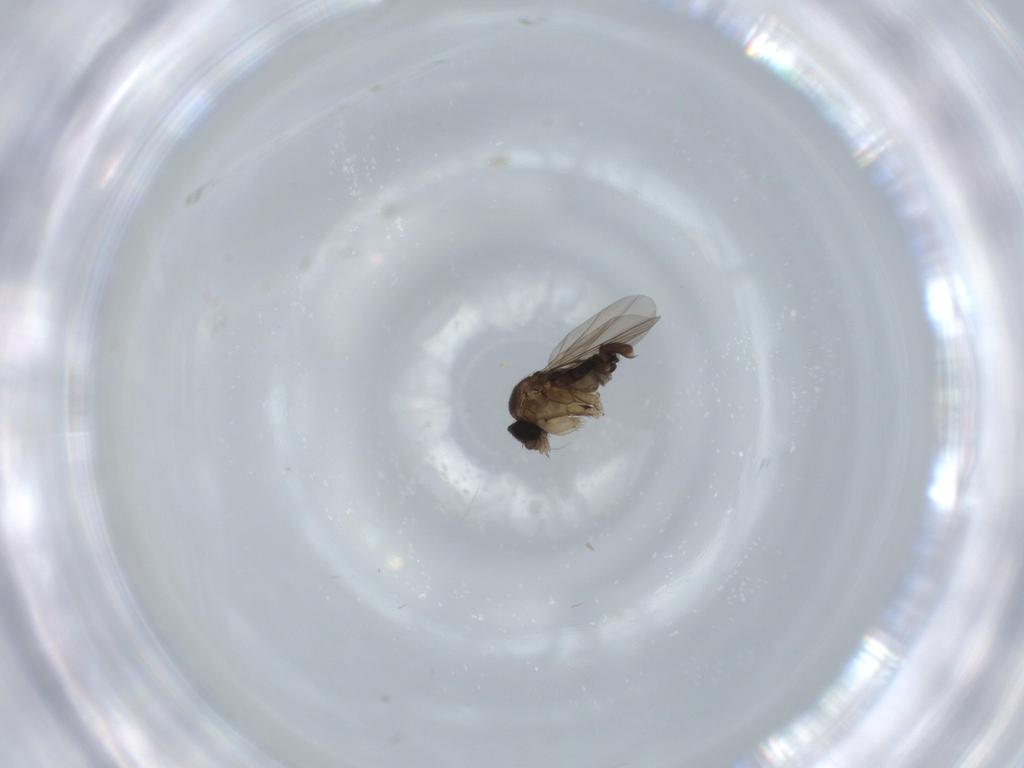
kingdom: Animalia
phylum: Arthropoda
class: Insecta
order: Diptera
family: Phoridae
